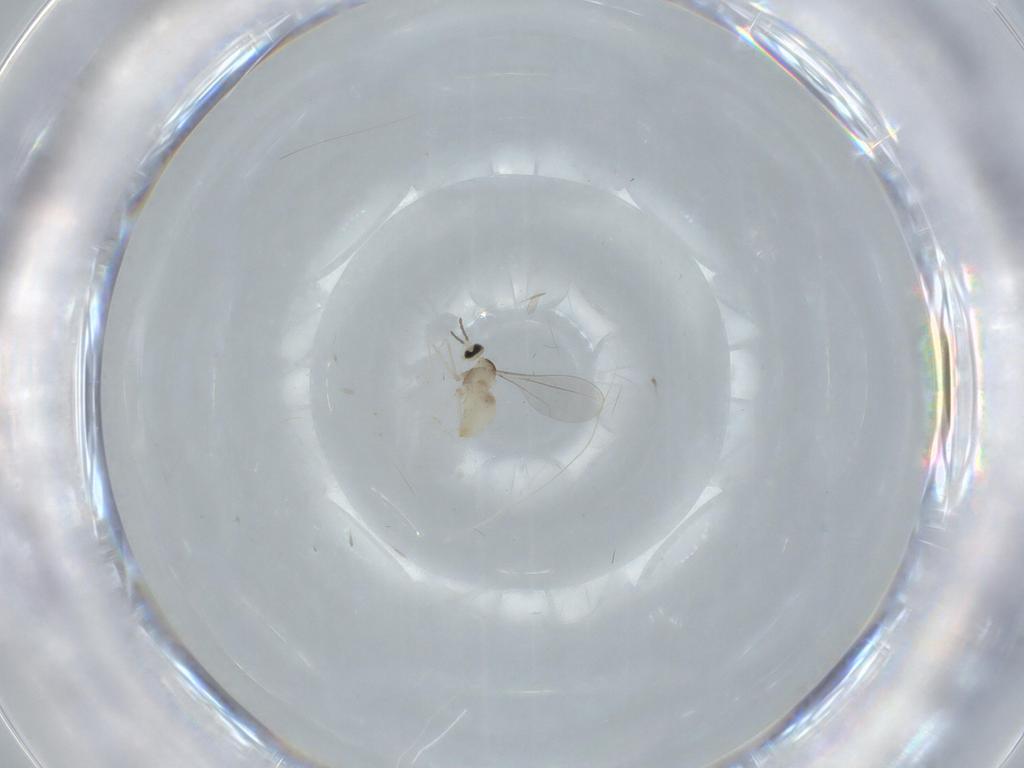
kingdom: Animalia
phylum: Arthropoda
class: Insecta
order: Diptera
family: Cecidomyiidae
